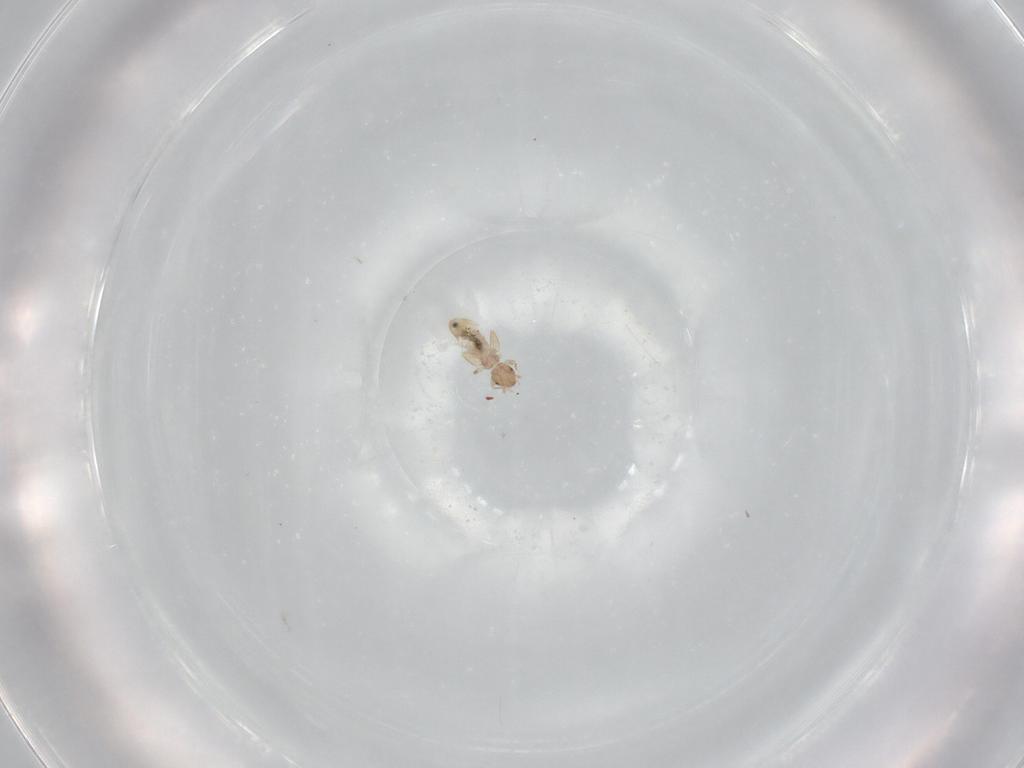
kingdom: Animalia
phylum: Arthropoda
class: Insecta
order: Psocodea
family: Liposcelididae
